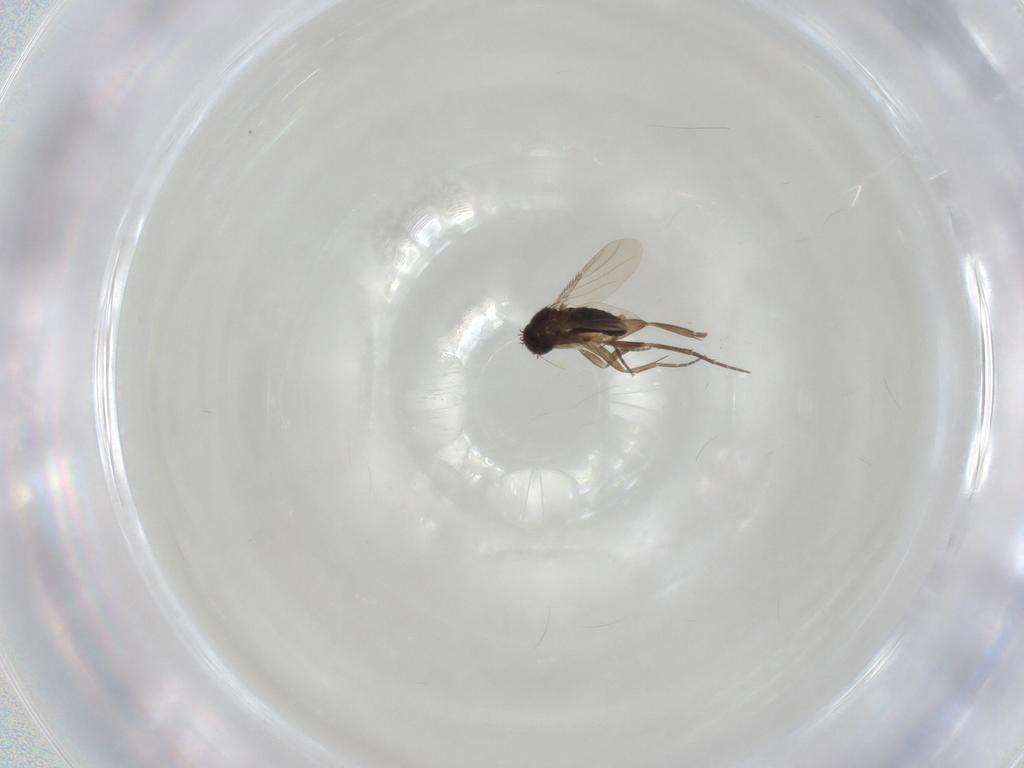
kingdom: Animalia
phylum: Arthropoda
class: Insecta
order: Diptera
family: Phoridae
